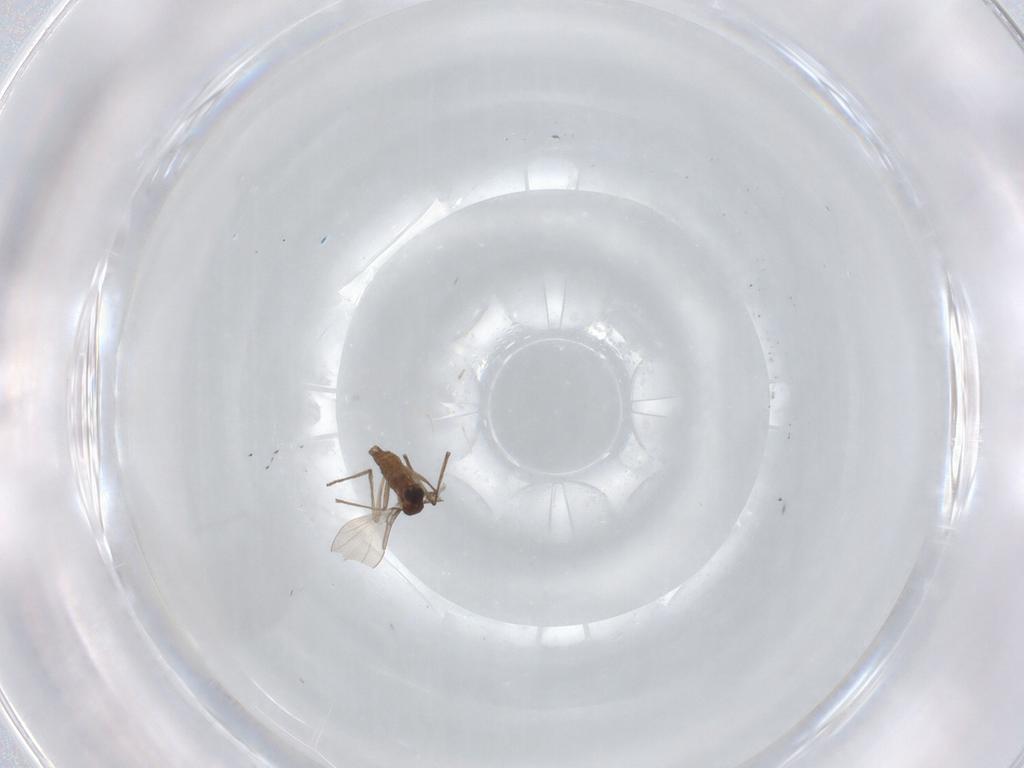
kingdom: Animalia
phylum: Arthropoda
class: Insecta
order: Diptera
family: Cecidomyiidae
